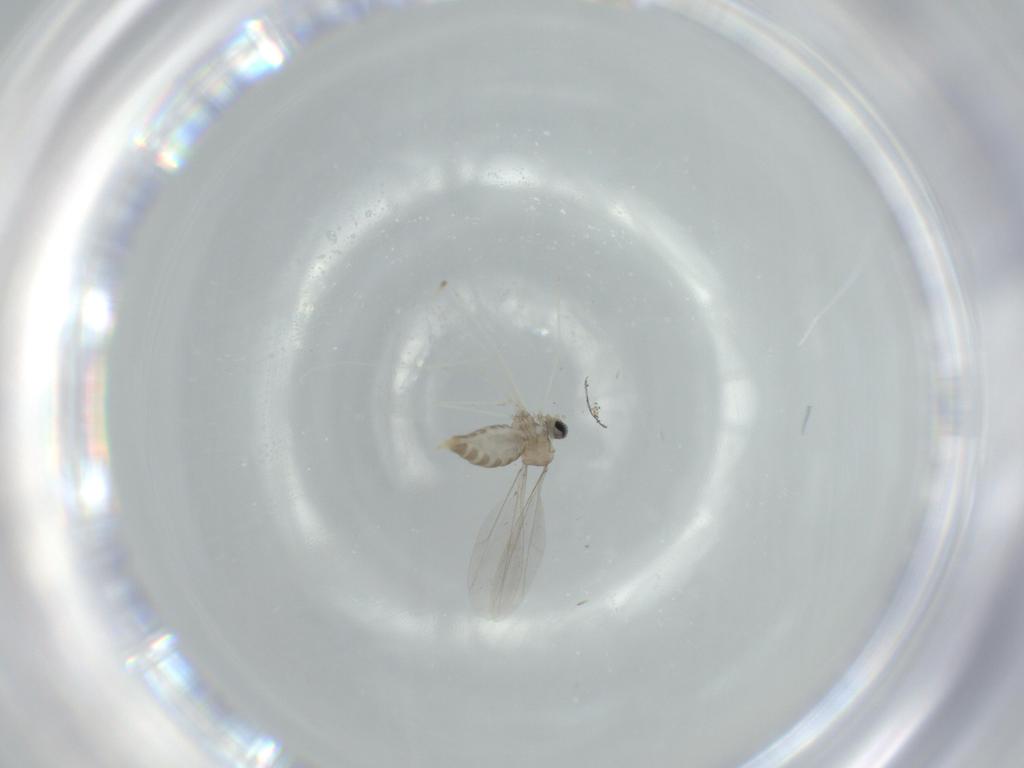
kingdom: Animalia
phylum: Arthropoda
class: Insecta
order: Diptera
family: Cecidomyiidae
